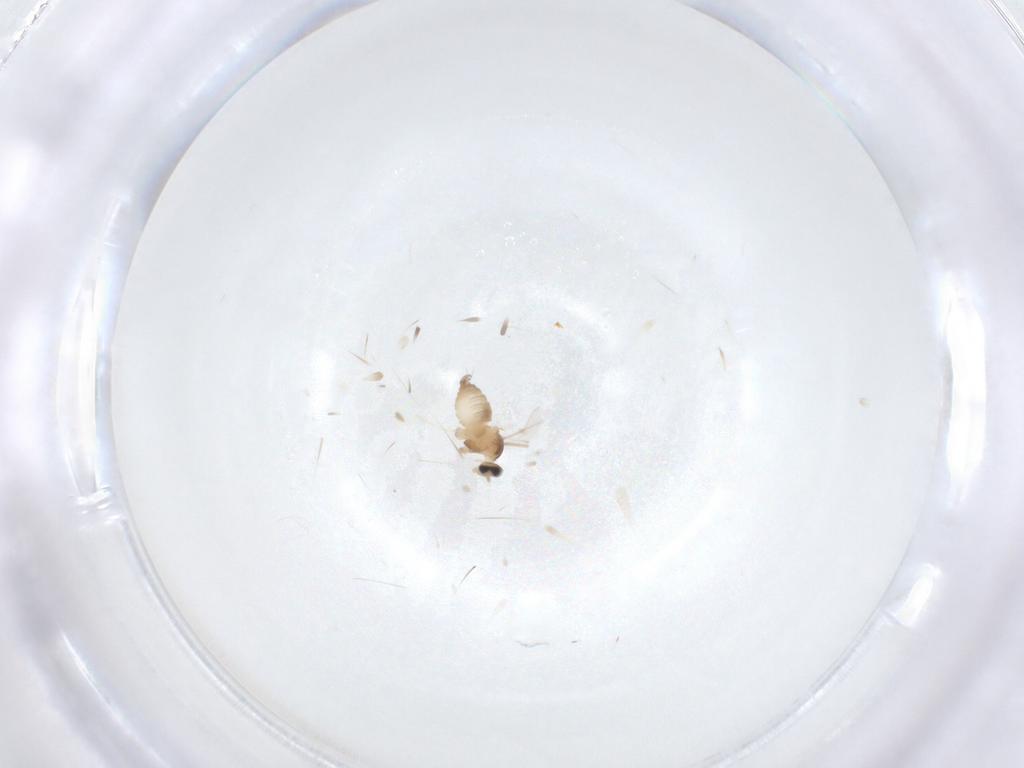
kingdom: Animalia
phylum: Arthropoda
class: Insecta
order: Diptera
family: Cecidomyiidae
